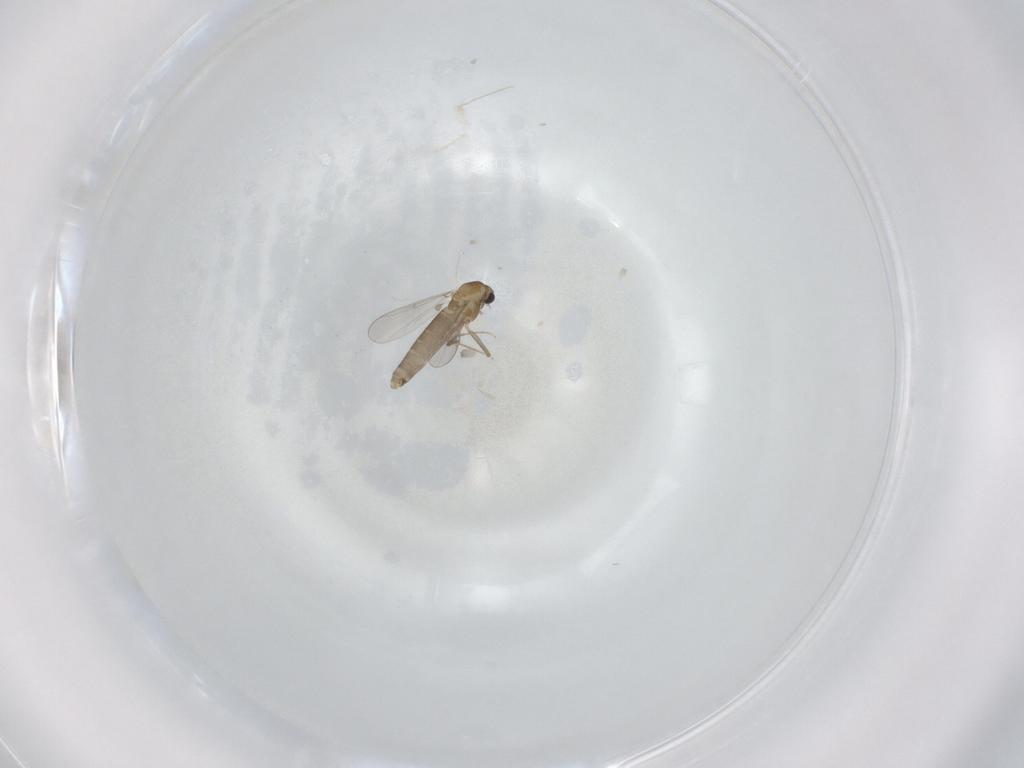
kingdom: Animalia
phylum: Arthropoda
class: Insecta
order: Diptera
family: Chironomidae
